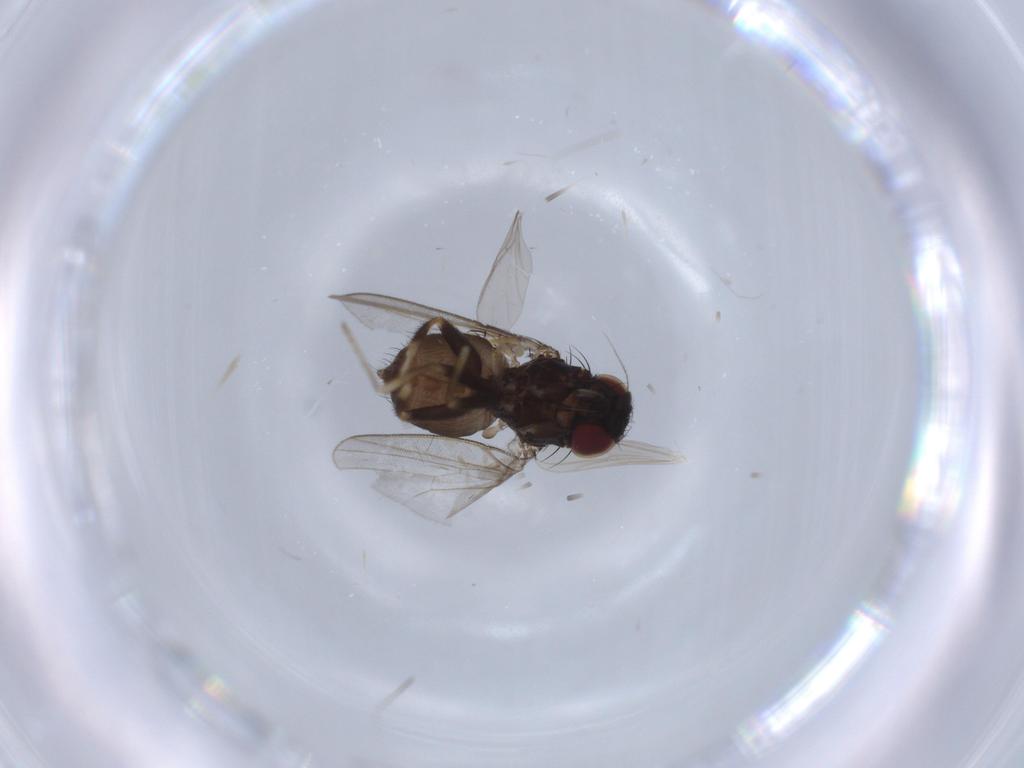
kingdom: Animalia
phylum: Arthropoda
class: Insecta
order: Diptera
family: Milichiidae
